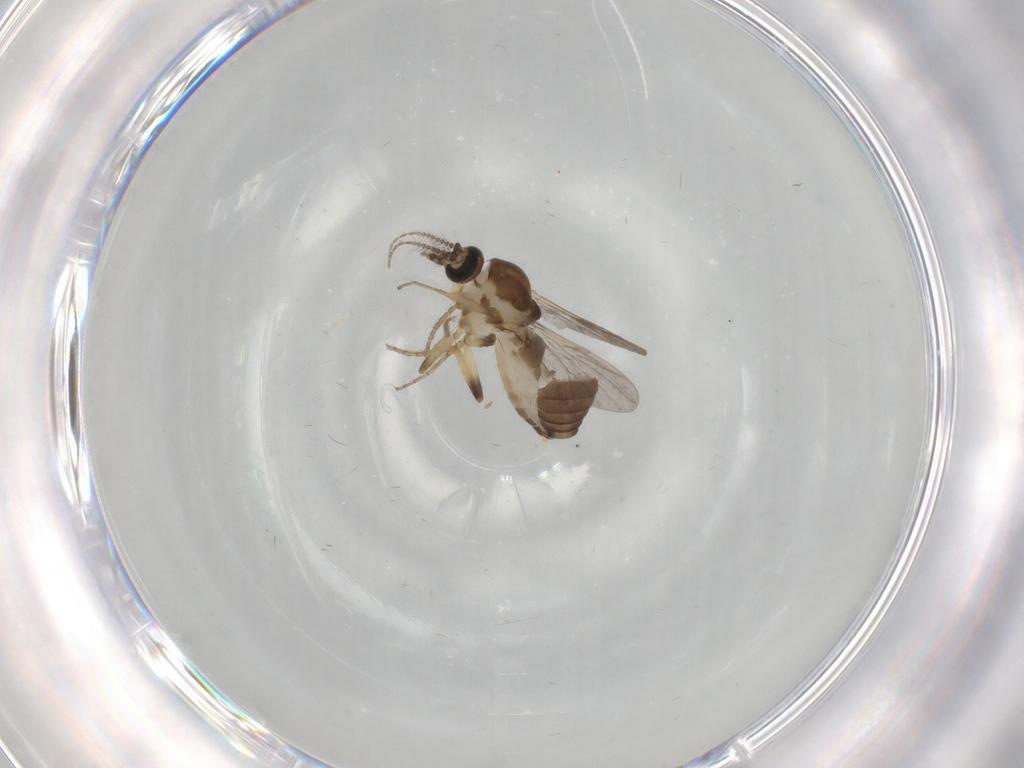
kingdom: Animalia
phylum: Arthropoda
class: Insecta
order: Diptera
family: Ceratopogonidae
